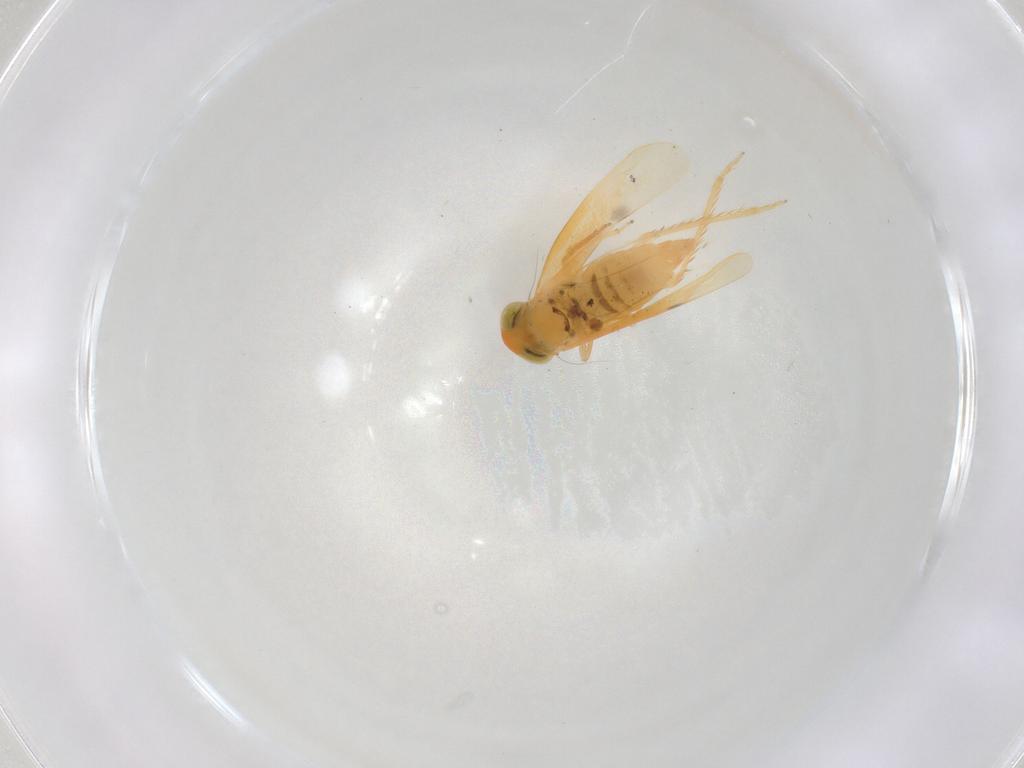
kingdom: Animalia
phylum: Arthropoda
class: Insecta
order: Hemiptera
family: Cicadellidae
